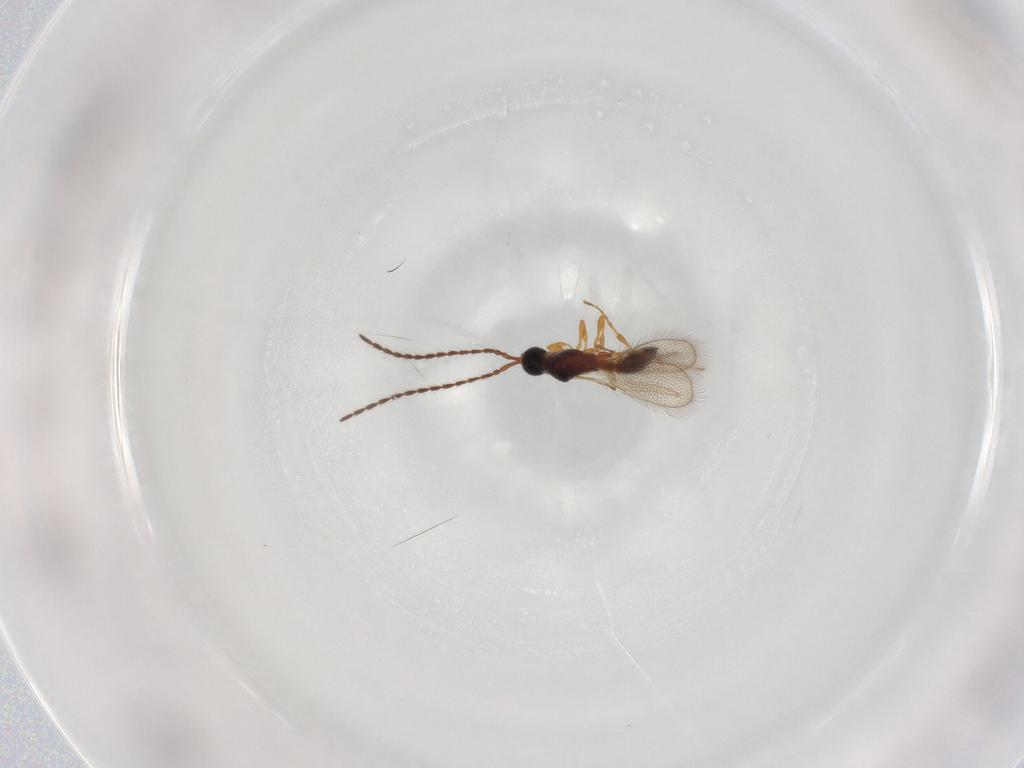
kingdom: Animalia
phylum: Arthropoda
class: Insecta
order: Hymenoptera
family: Diapriidae
